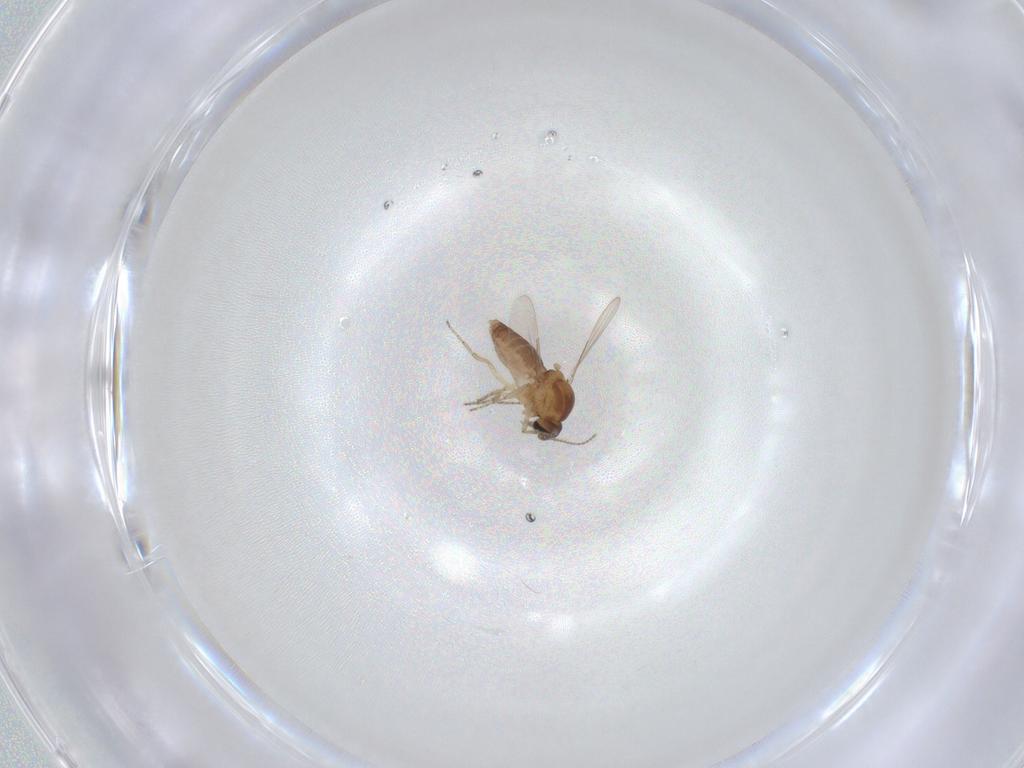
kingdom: Animalia
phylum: Arthropoda
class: Insecta
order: Diptera
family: Ceratopogonidae
